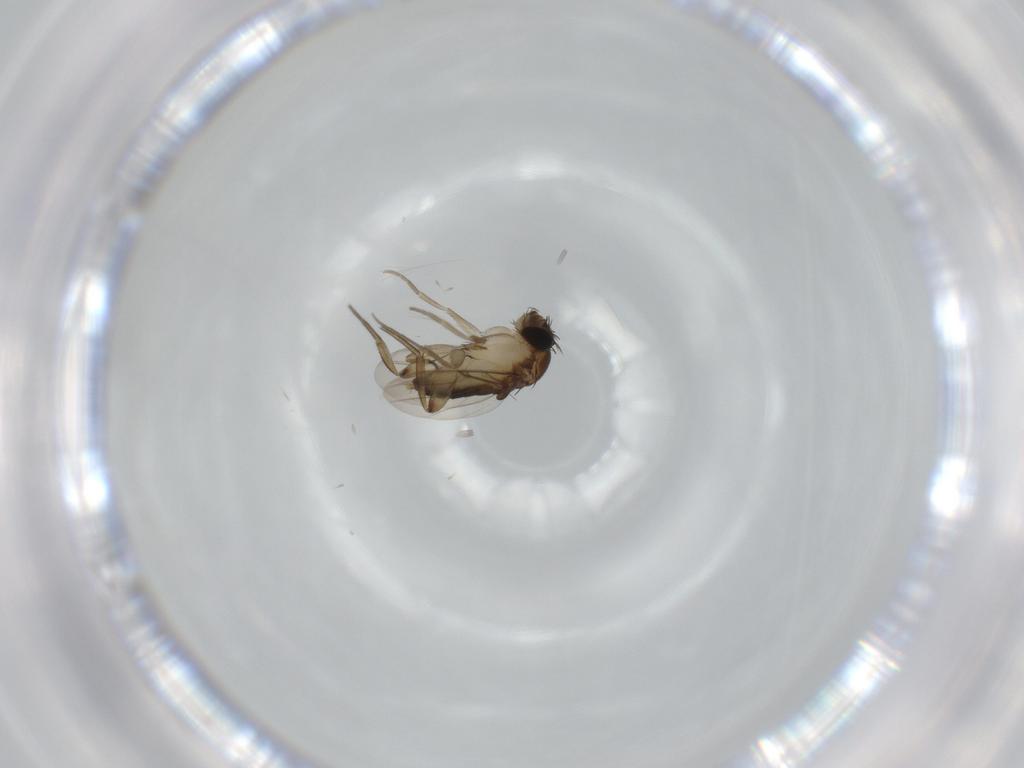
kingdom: Animalia
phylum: Arthropoda
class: Insecta
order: Diptera
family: Phoridae
